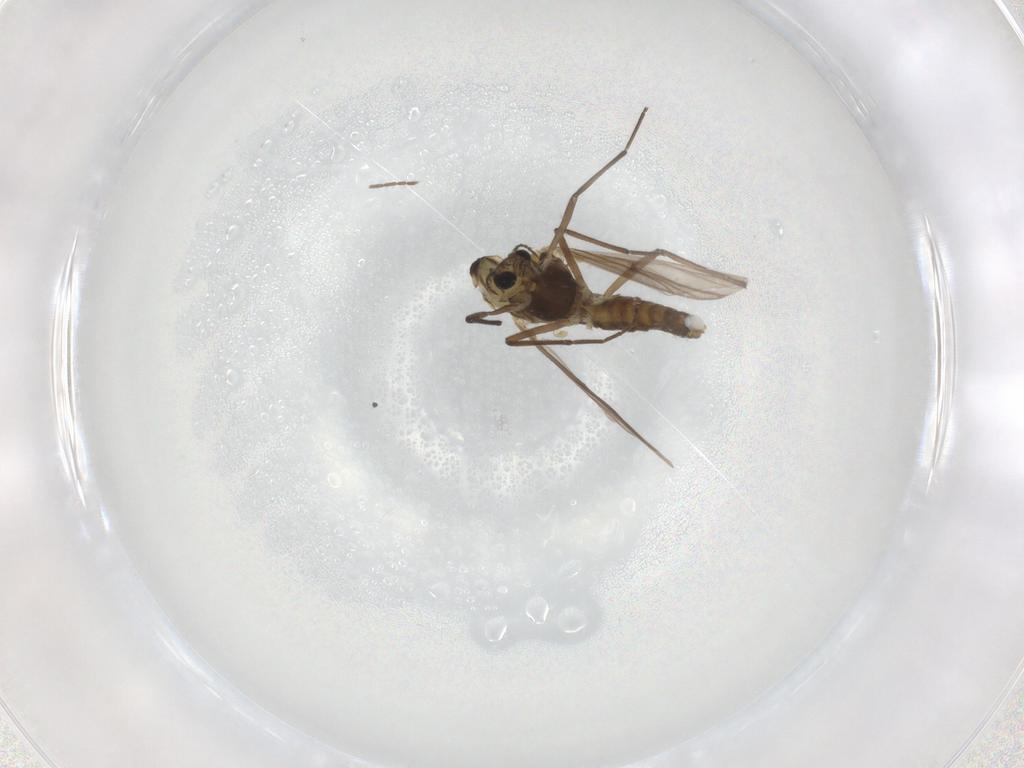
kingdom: Animalia
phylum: Arthropoda
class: Insecta
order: Diptera
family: Chironomidae
